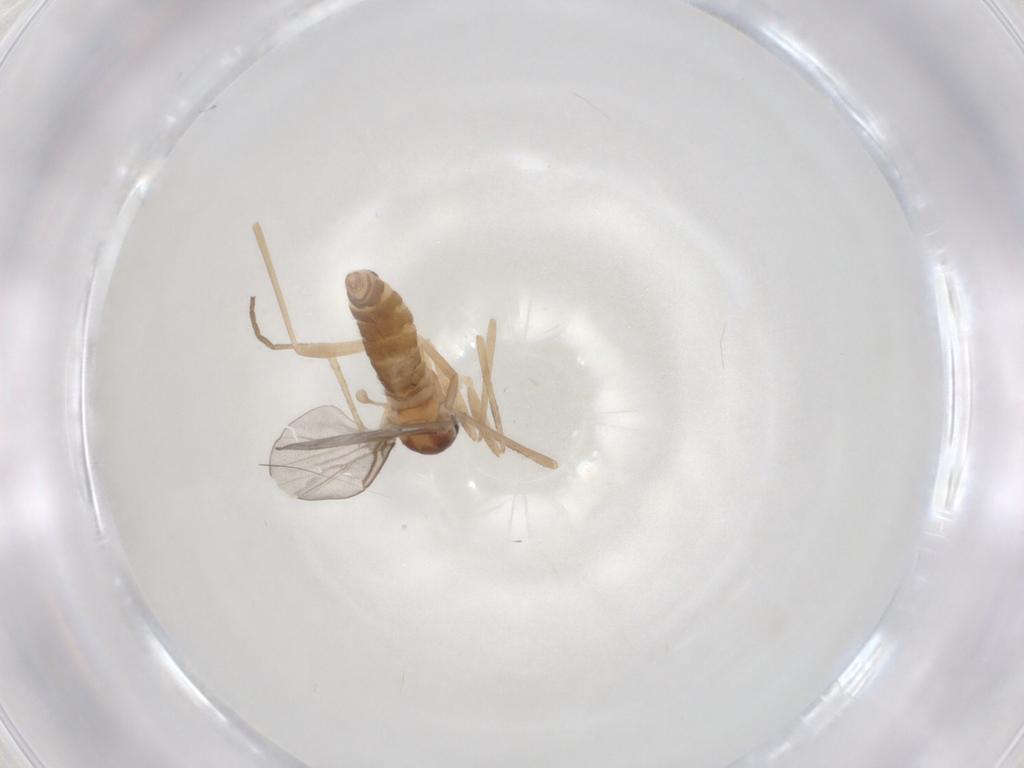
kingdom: Animalia
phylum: Arthropoda
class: Insecta
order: Diptera
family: Cecidomyiidae
